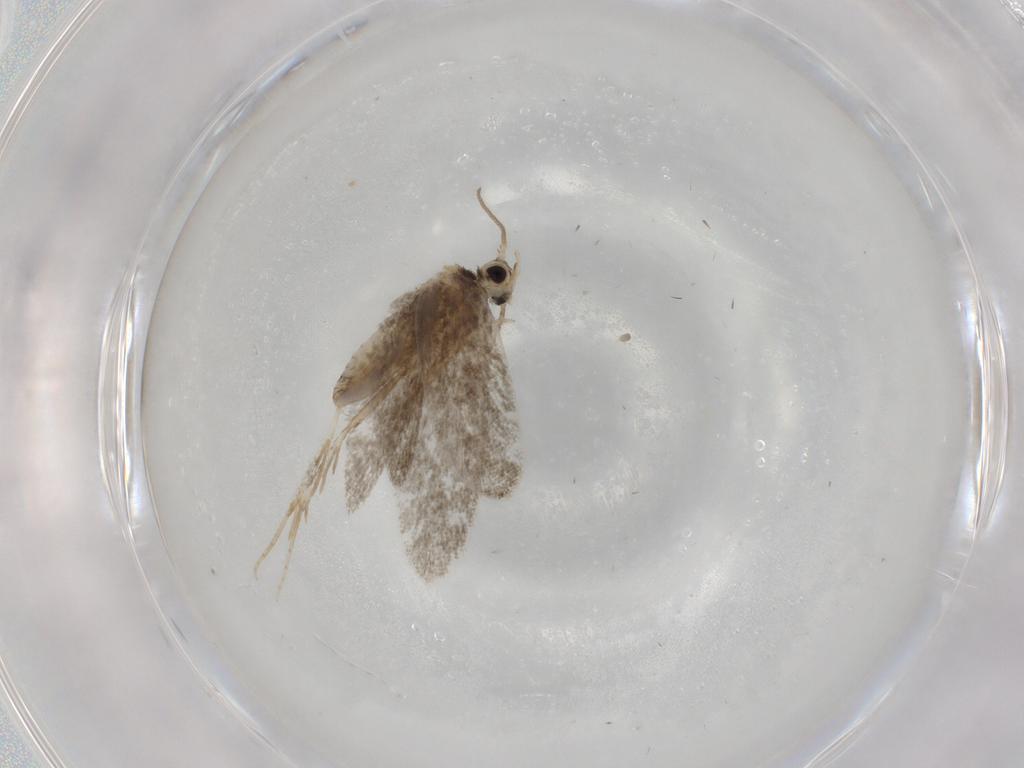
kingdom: Animalia
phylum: Arthropoda
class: Insecta
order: Lepidoptera
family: Psychidae
